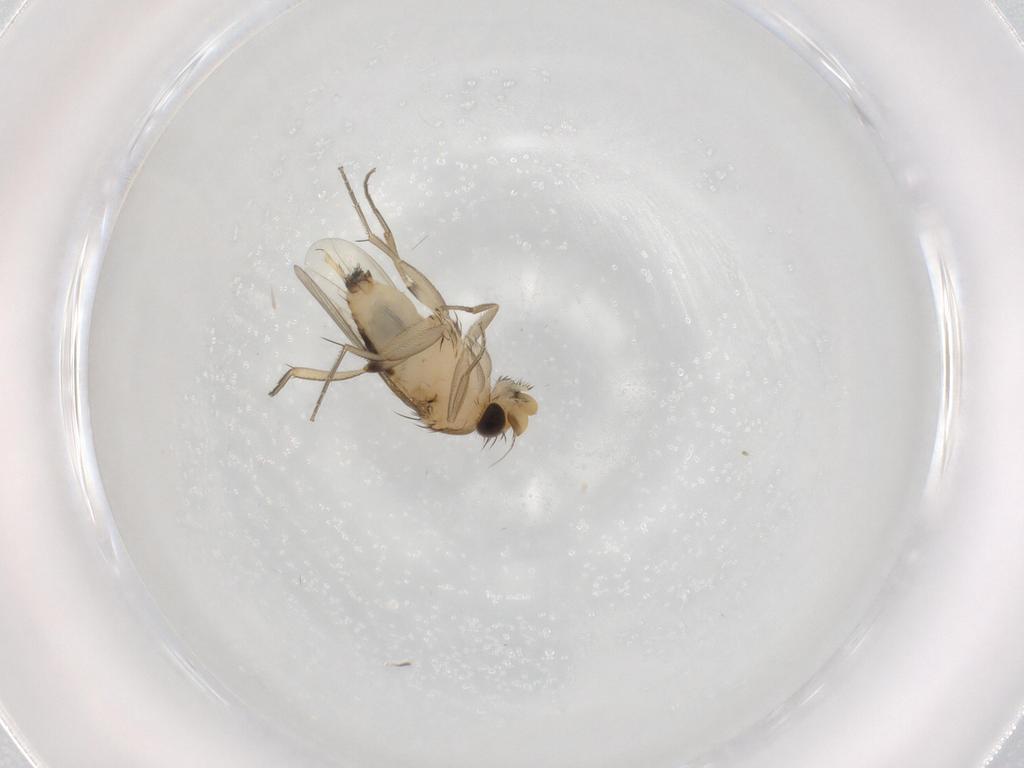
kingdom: Animalia
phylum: Arthropoda
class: Insecta
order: Diptera
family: Phoridae
